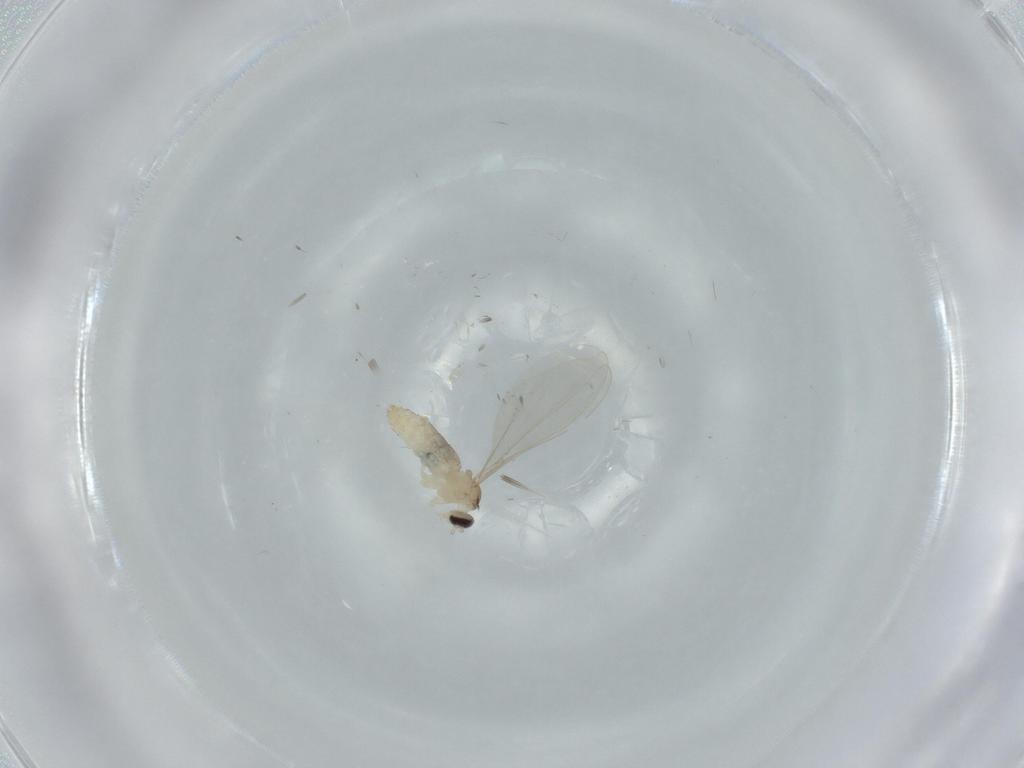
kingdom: Animalia
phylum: Arthropoda
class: Insecta
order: Diptera
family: Cecidomyiidae
